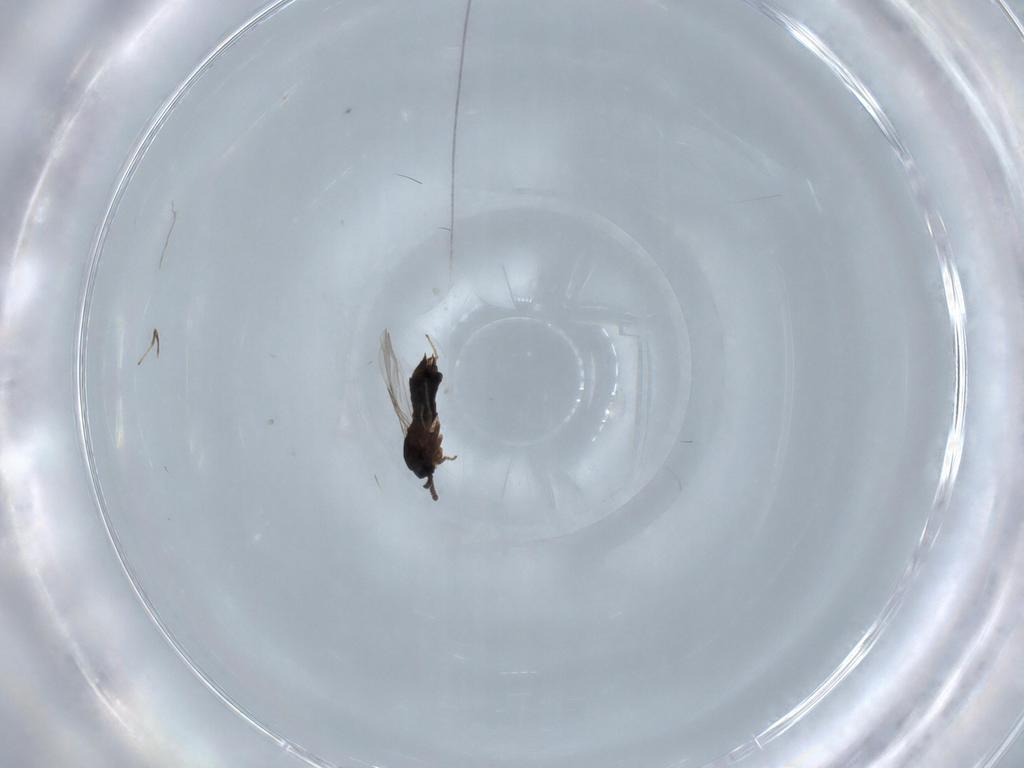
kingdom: Animalia
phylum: Arthropoda
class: Insecta
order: Diptera
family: Scatopsidae
